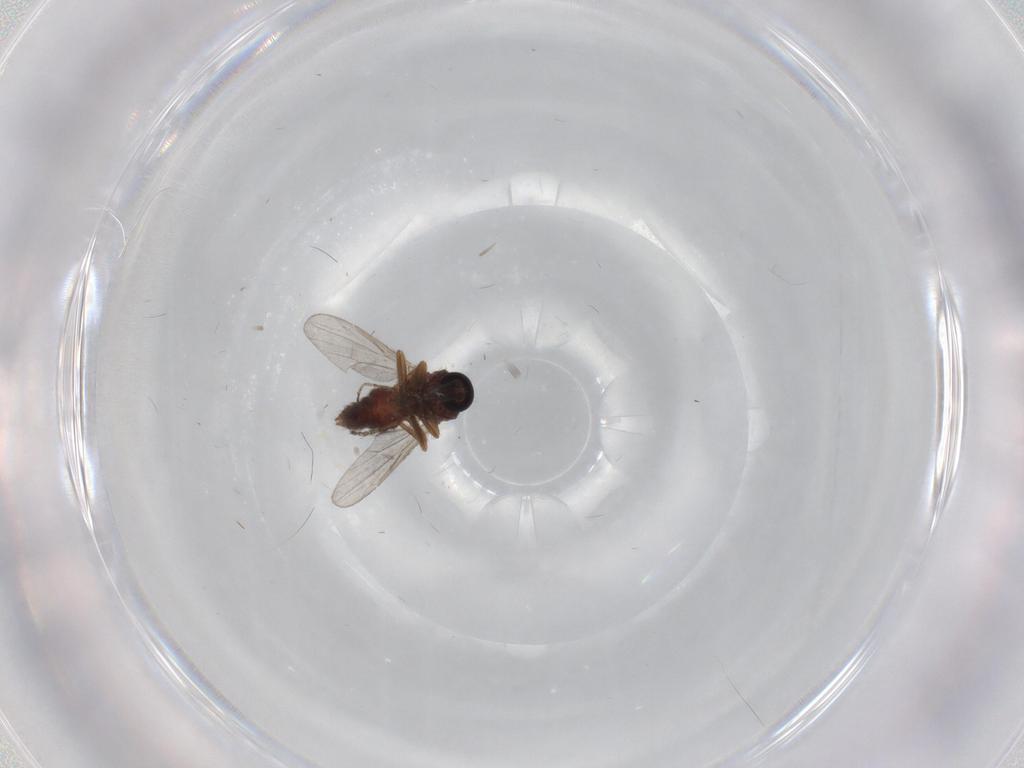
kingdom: Animalia
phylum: Arthropoda
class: Insecta
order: Diptera
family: Ceratopogonidae
